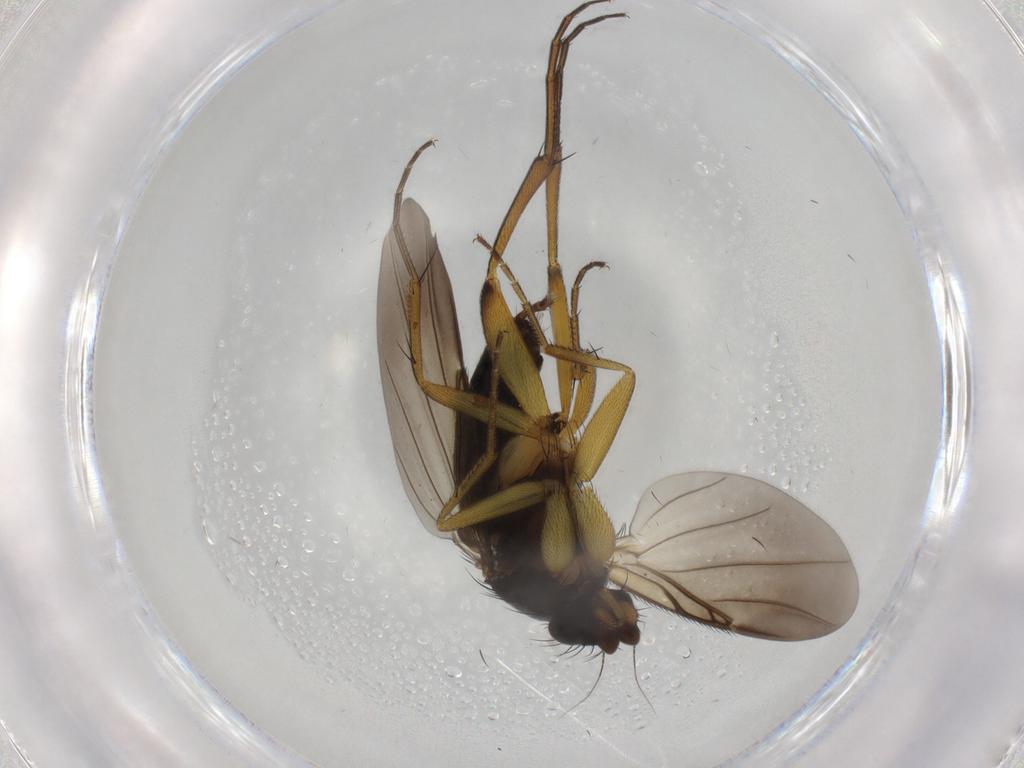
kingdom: Animalia
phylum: Arthropoda
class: Insecta
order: Diptera
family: Phoridae
